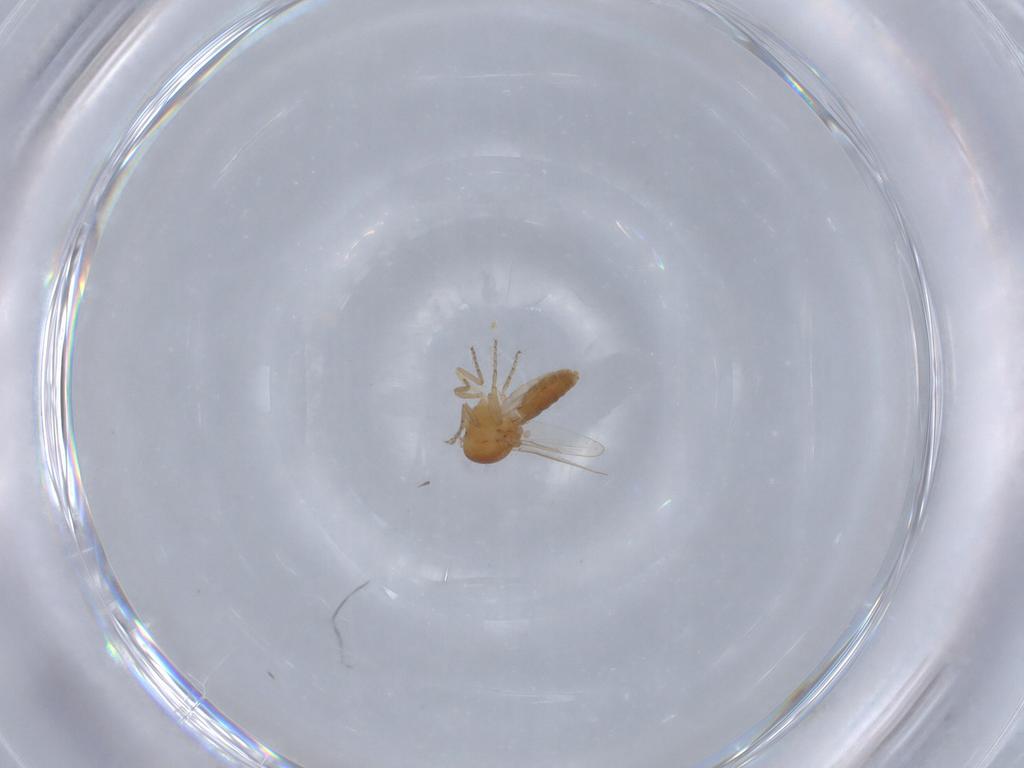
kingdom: Animalia
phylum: Arthropoda
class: Insecta
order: Diptera
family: Ceratopogonidae
